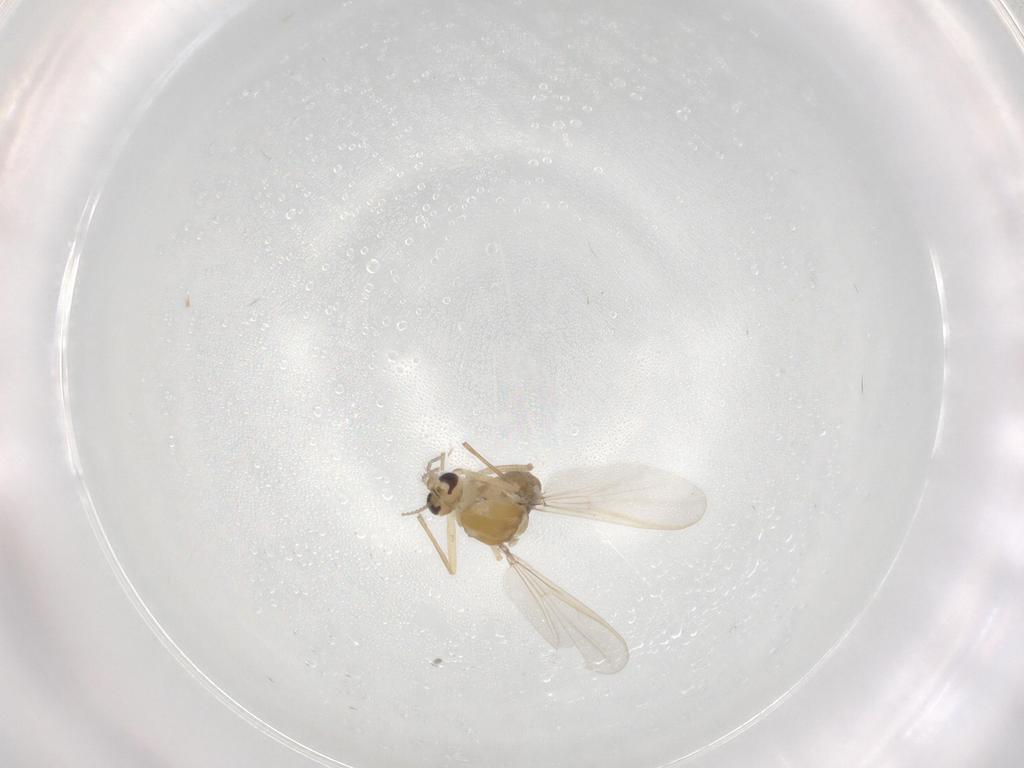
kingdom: Animalia
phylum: Arthropoda
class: Insecta
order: Diptera
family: Chironomidae
